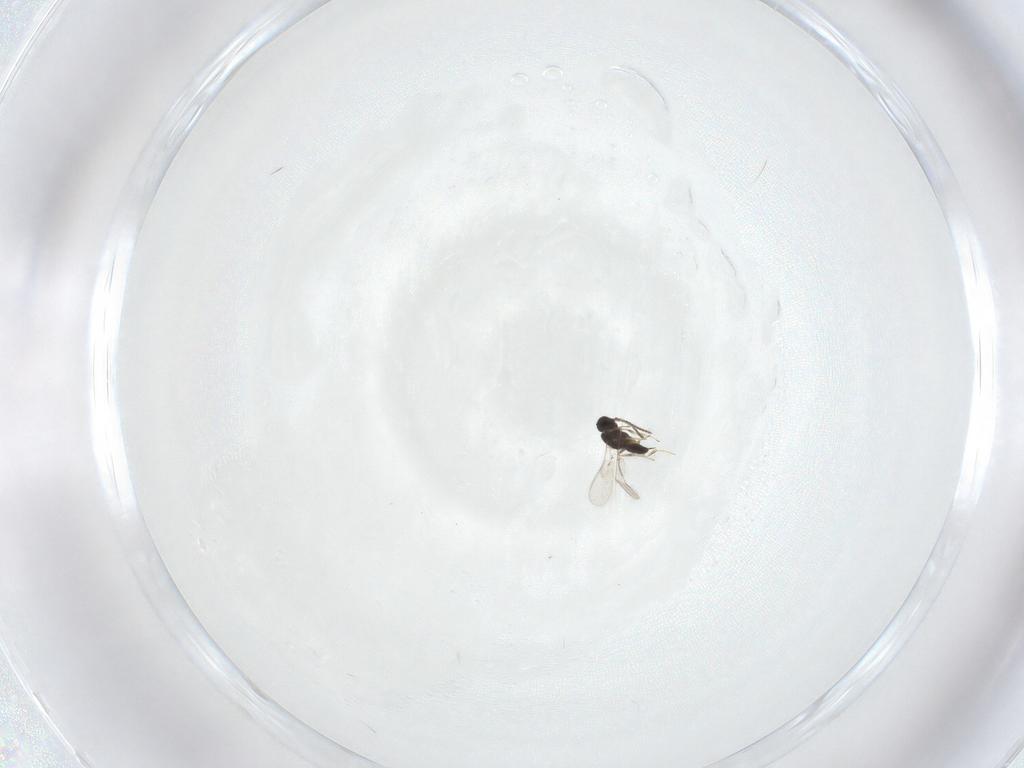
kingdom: Animalia
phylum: Arthropoda
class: Insecta
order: Hymenoptera
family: Scelionidae
